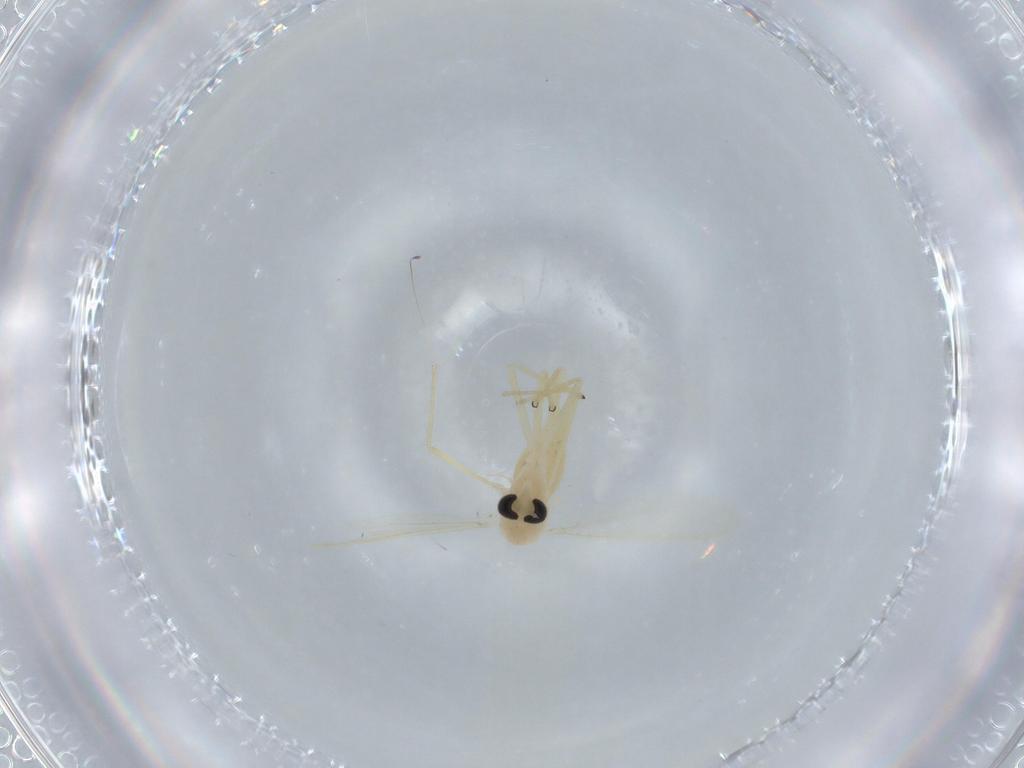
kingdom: Animalia
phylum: Arthropoda
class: Insecta
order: Diptera
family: Chironomidae
